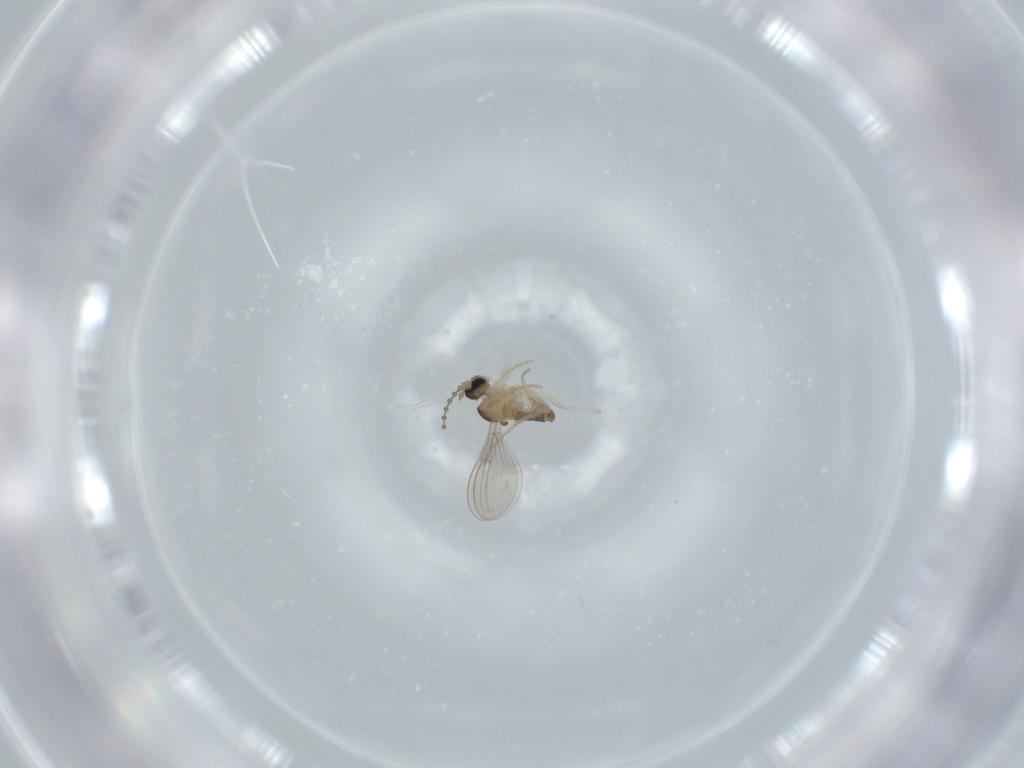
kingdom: Animalia
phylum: Arthropoda
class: Insecta
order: Diptera
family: Cecidomyiidae
